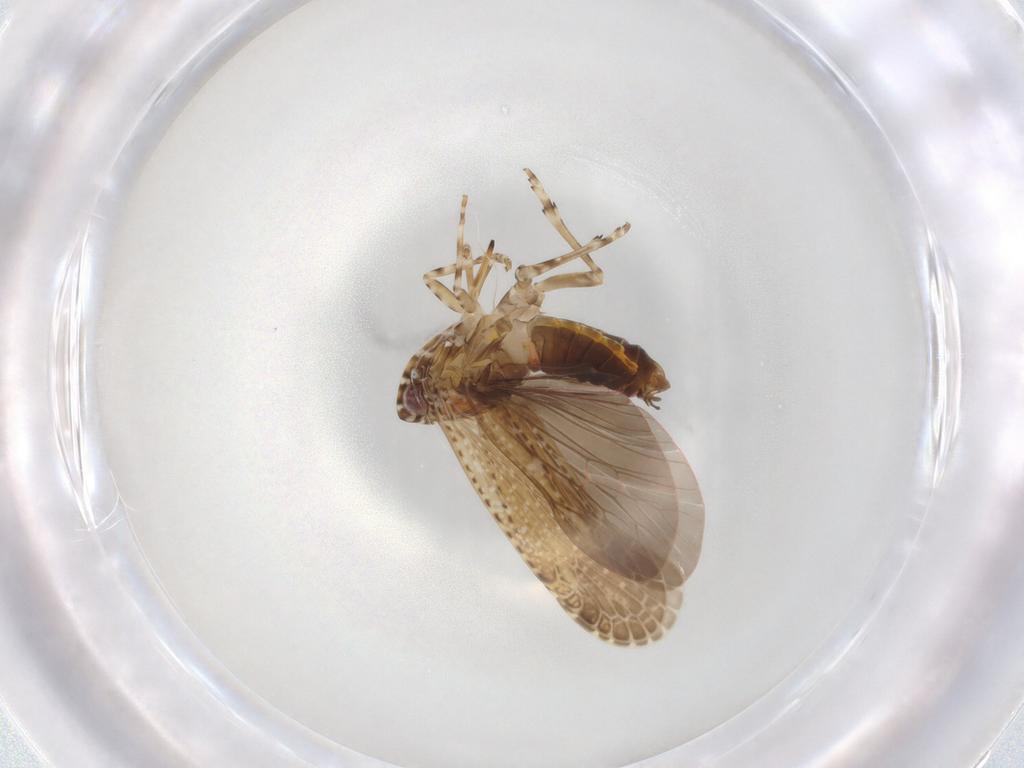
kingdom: Animalia
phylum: Arthropoda
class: Insecta
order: Hemiptera
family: Achilidae
